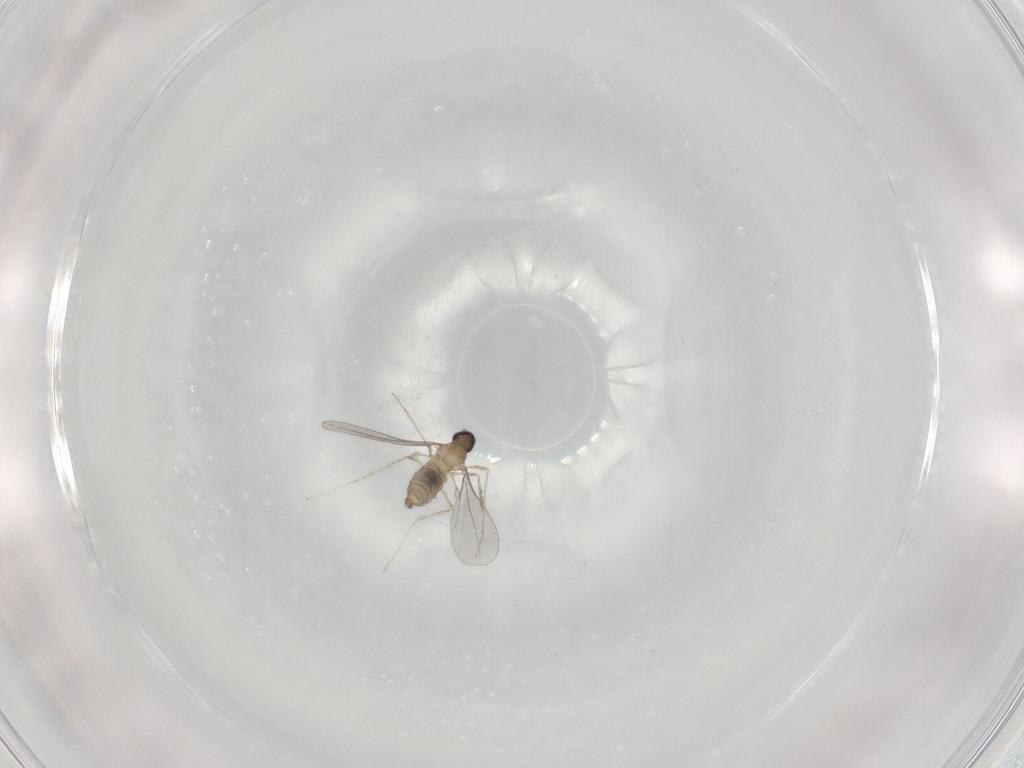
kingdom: Animalia
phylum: Arthropoda
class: Insecta
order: Diptera
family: Cecidomyiidae
